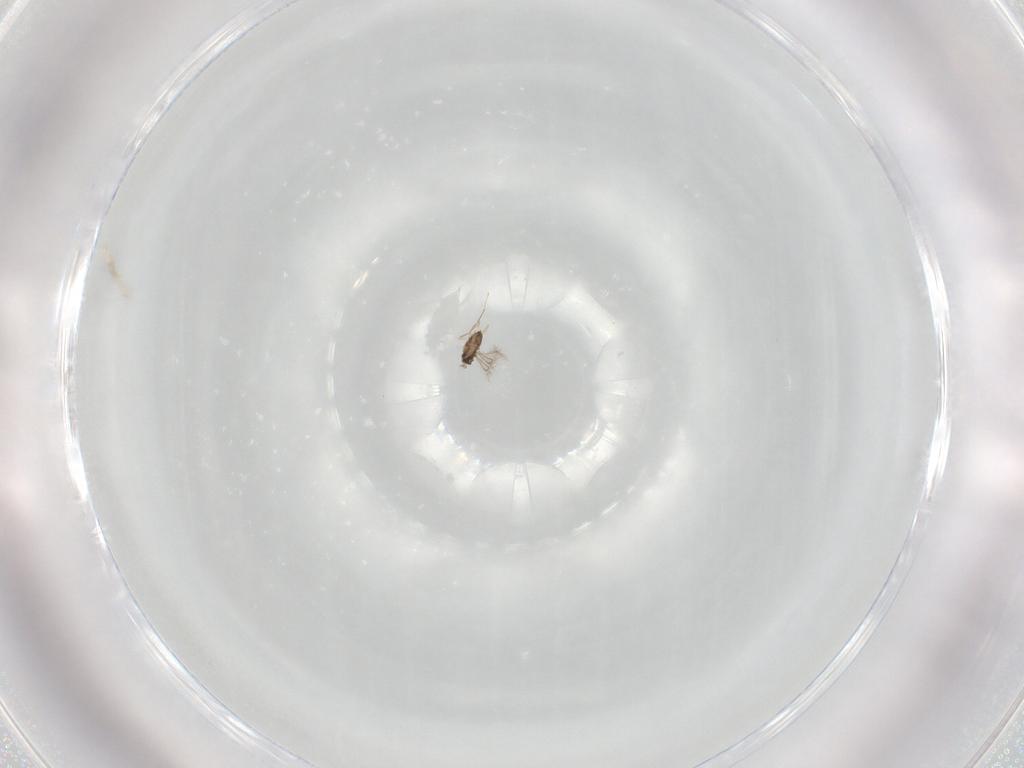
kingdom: Animalia
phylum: Arthropoda
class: Insecta
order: Hymenoptera
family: Mymaridae
